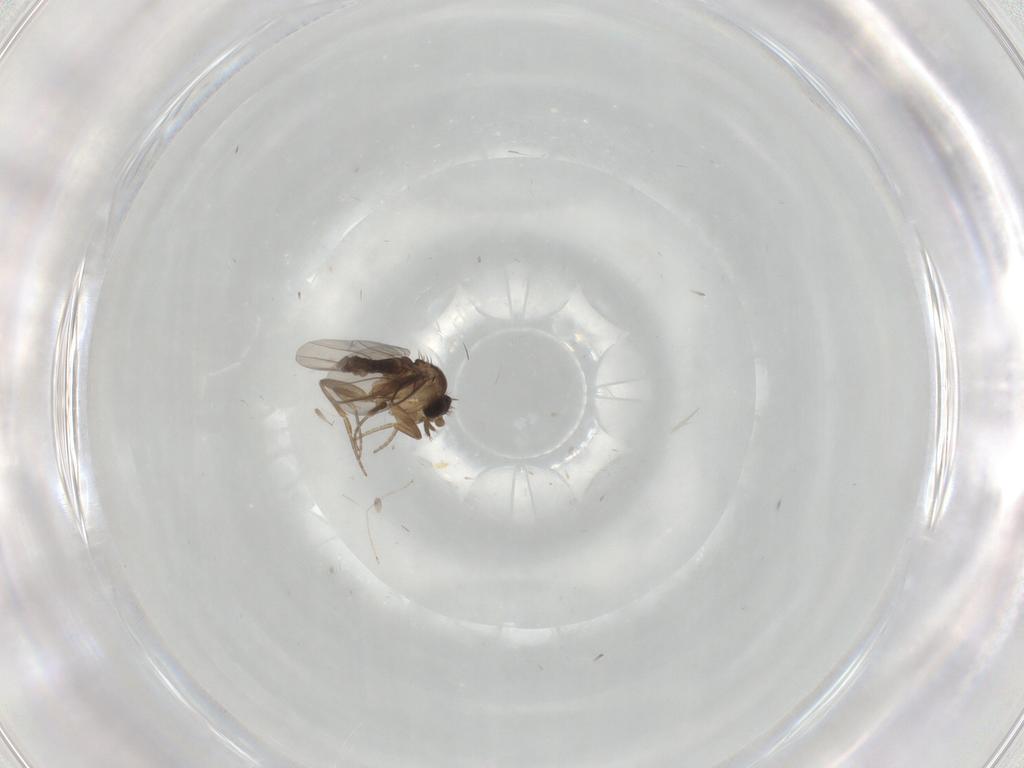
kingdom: Animalia
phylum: Arthropoda
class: Insecta
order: Diptera
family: Phoridae
